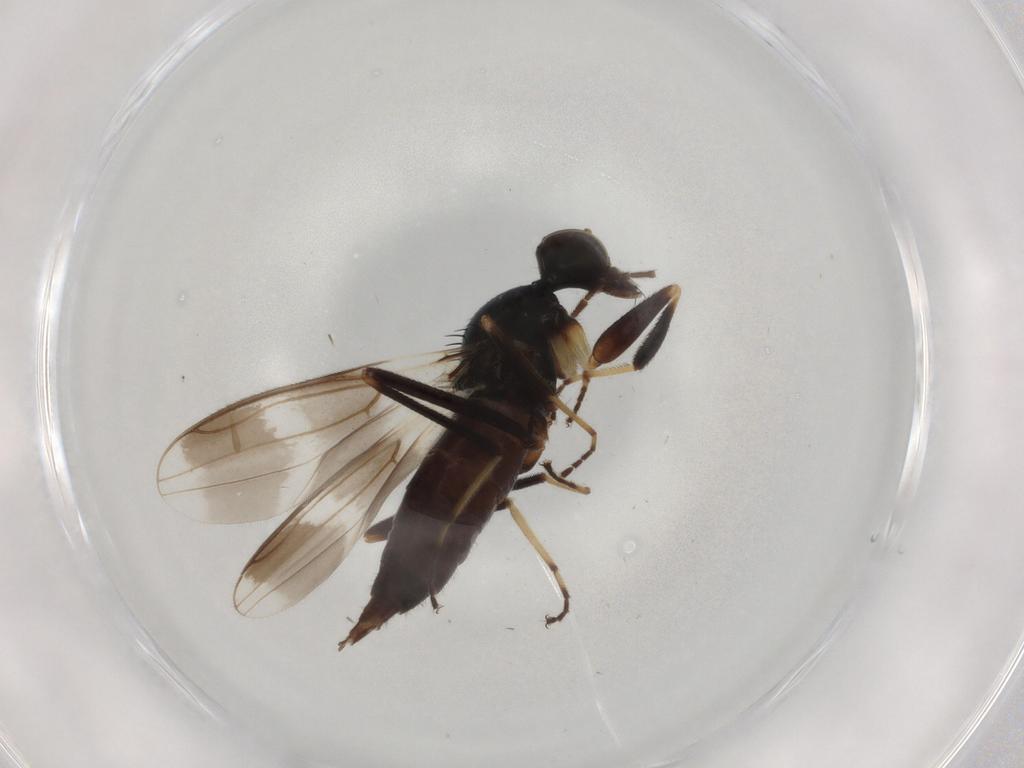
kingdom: Animalia
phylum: Arthropoda
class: Insecta
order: Diptera
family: Hybotidae
